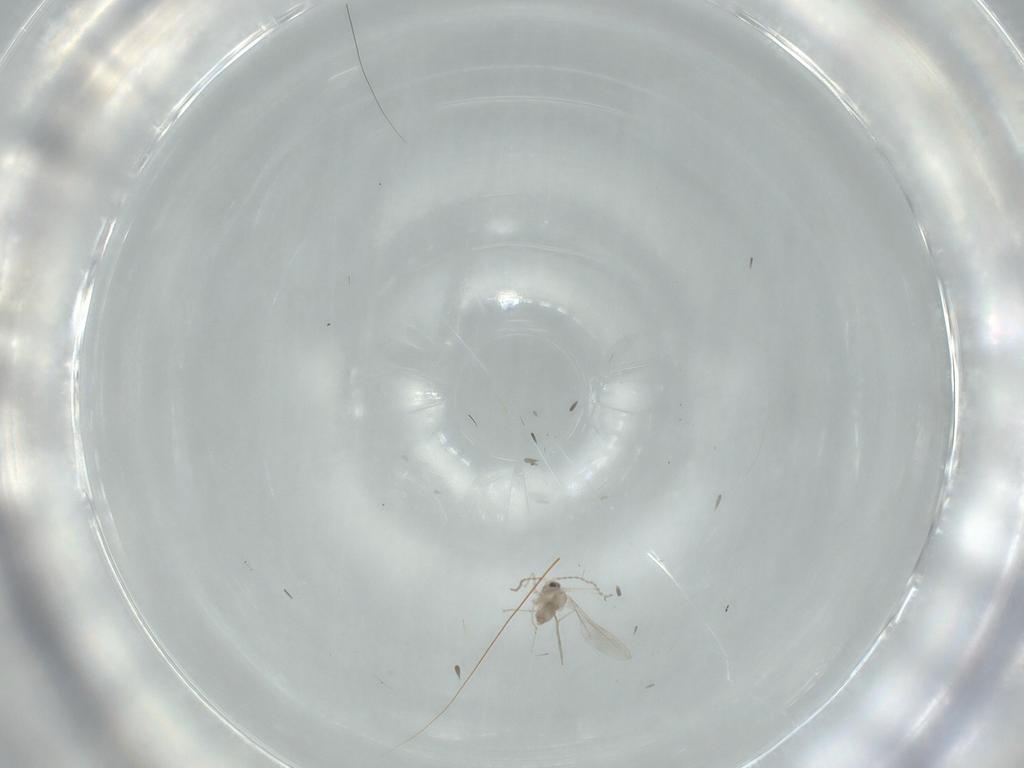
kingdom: Animalia
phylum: Arthropoda
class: Insecta
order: Diptera
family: Cecidomyiidae
